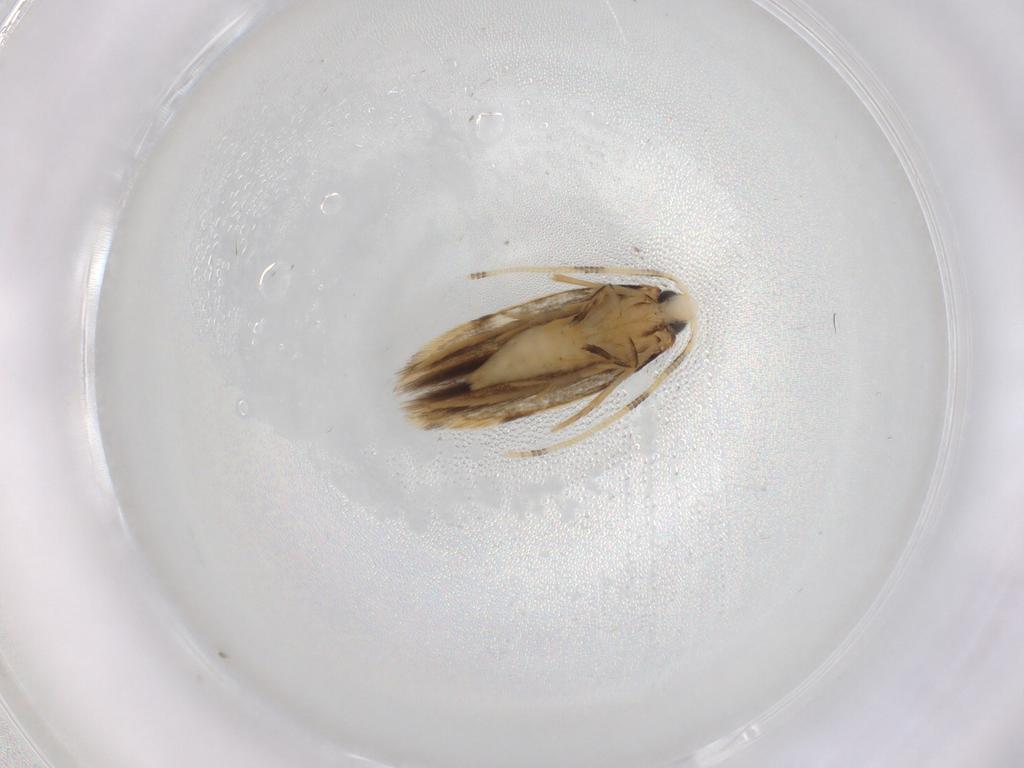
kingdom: Animalia
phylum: Arthropoda
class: Insecta
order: Lepidoptera
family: Tineidae
